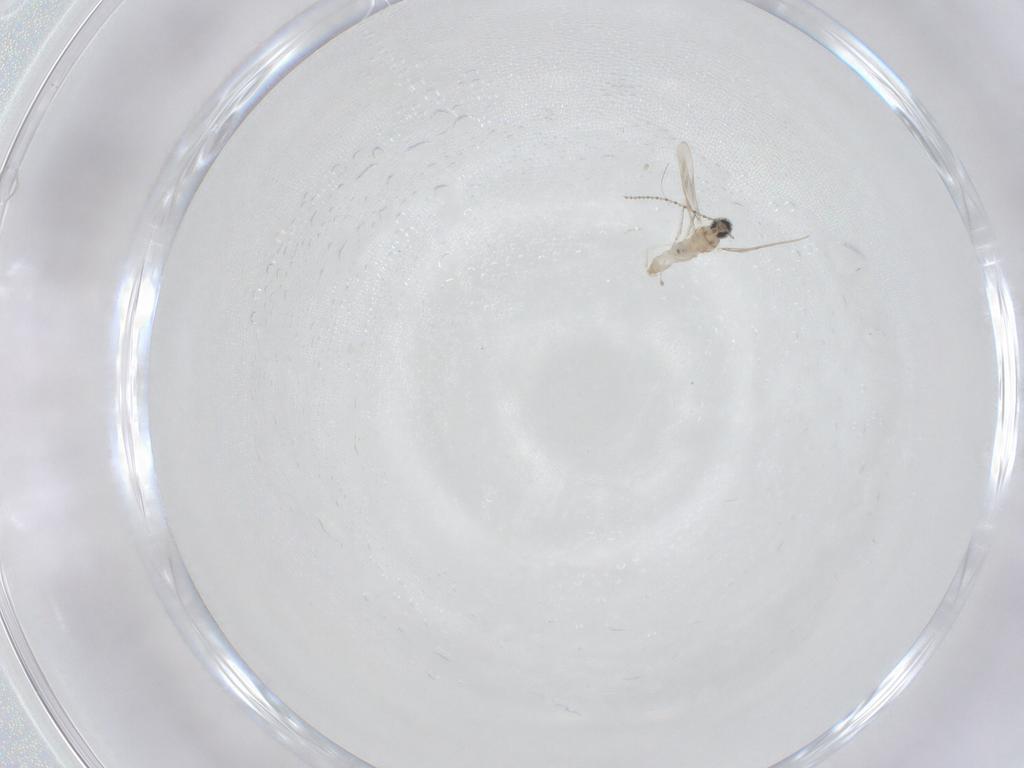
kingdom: Animalia
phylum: Arthropoda
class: Insecta
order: Diptera
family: Cecidomyiidae
